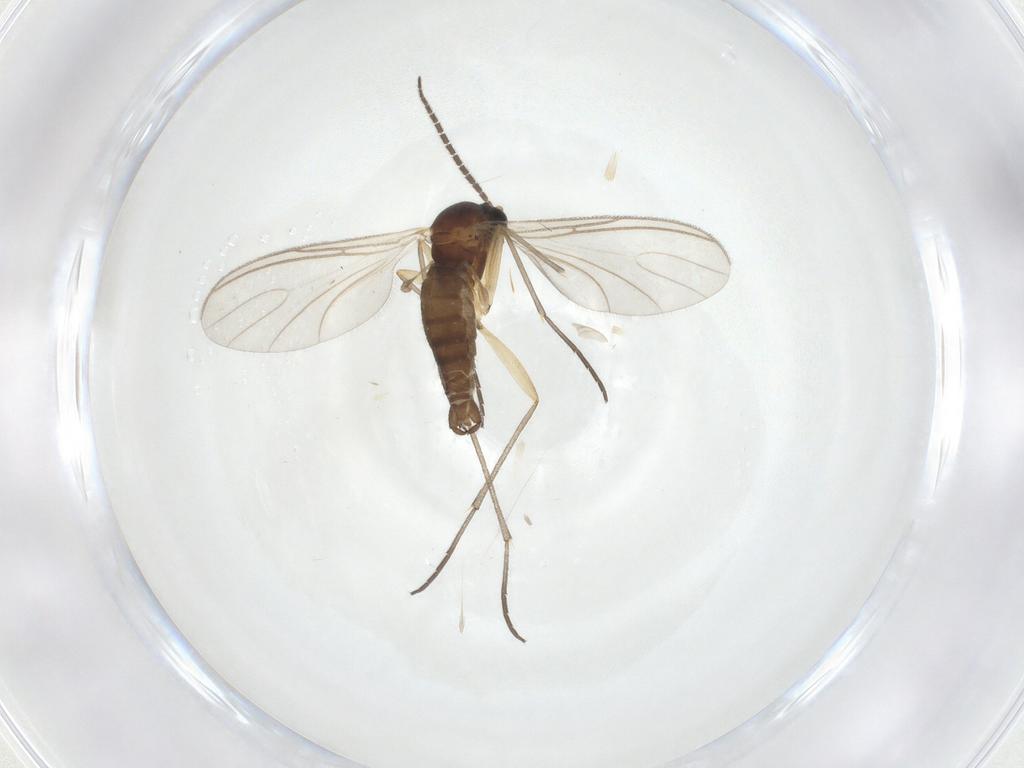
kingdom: Animalia
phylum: Arthropoda
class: Insecta
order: Diptera
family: Sciaridae
